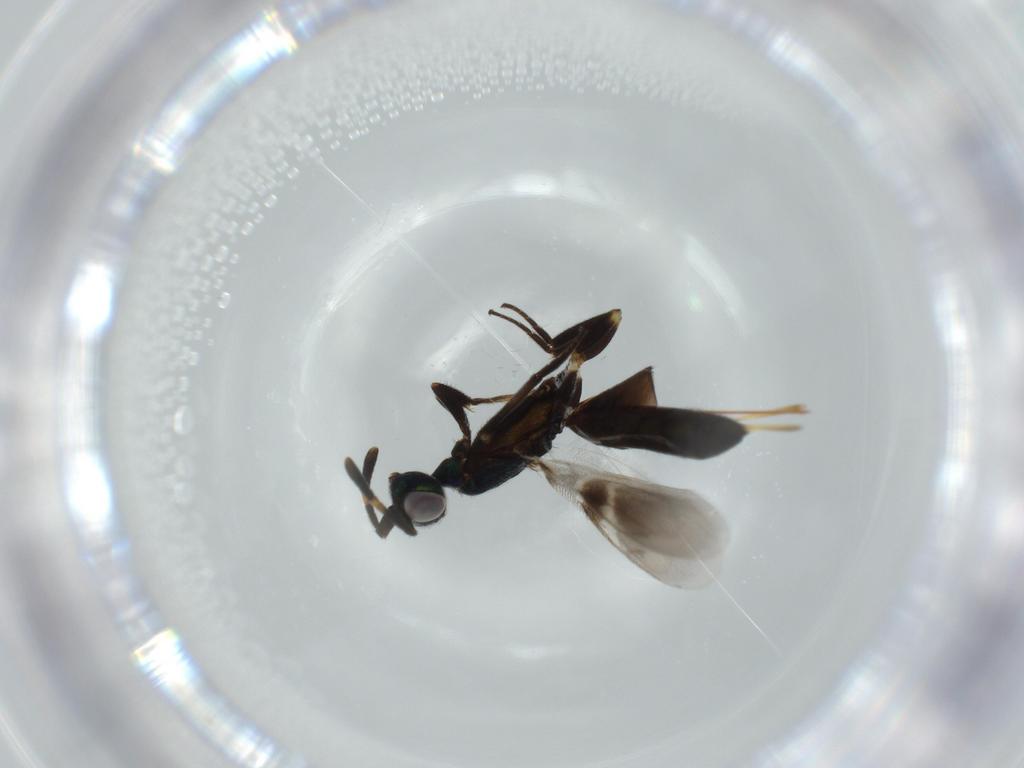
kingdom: Animalia
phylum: Arthropoda
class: Insecta
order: Hymenoptera
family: Eupelmidae
